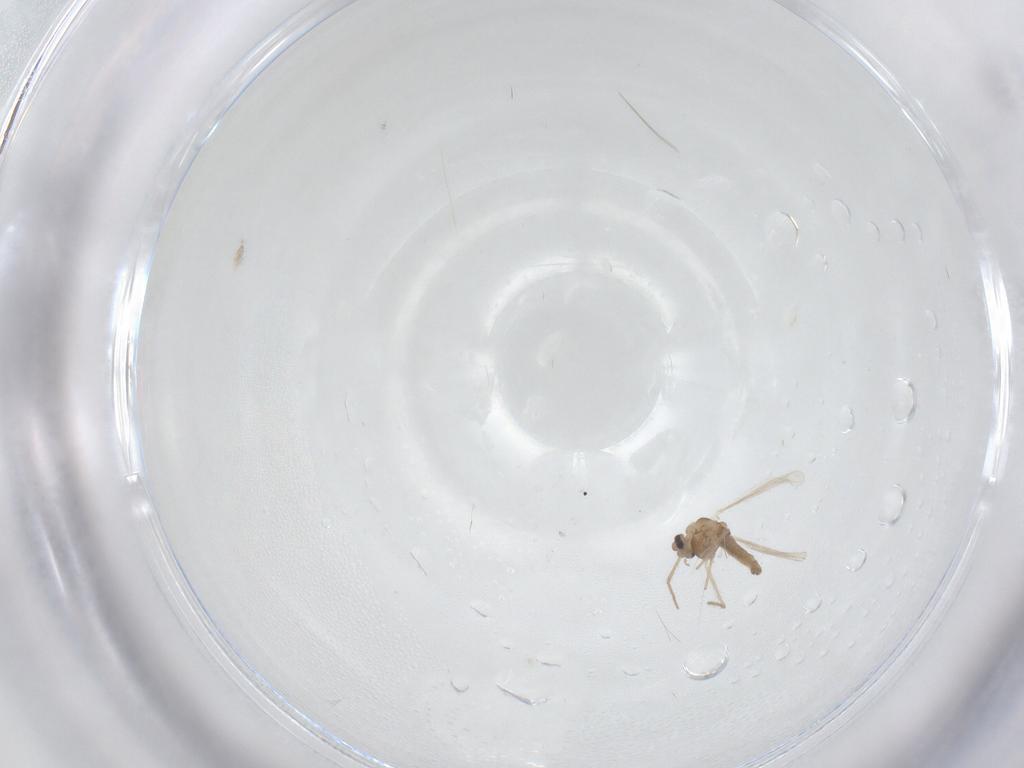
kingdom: Animalia
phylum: Arthropoda
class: Insecta
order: Diptera
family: Chironomidae
